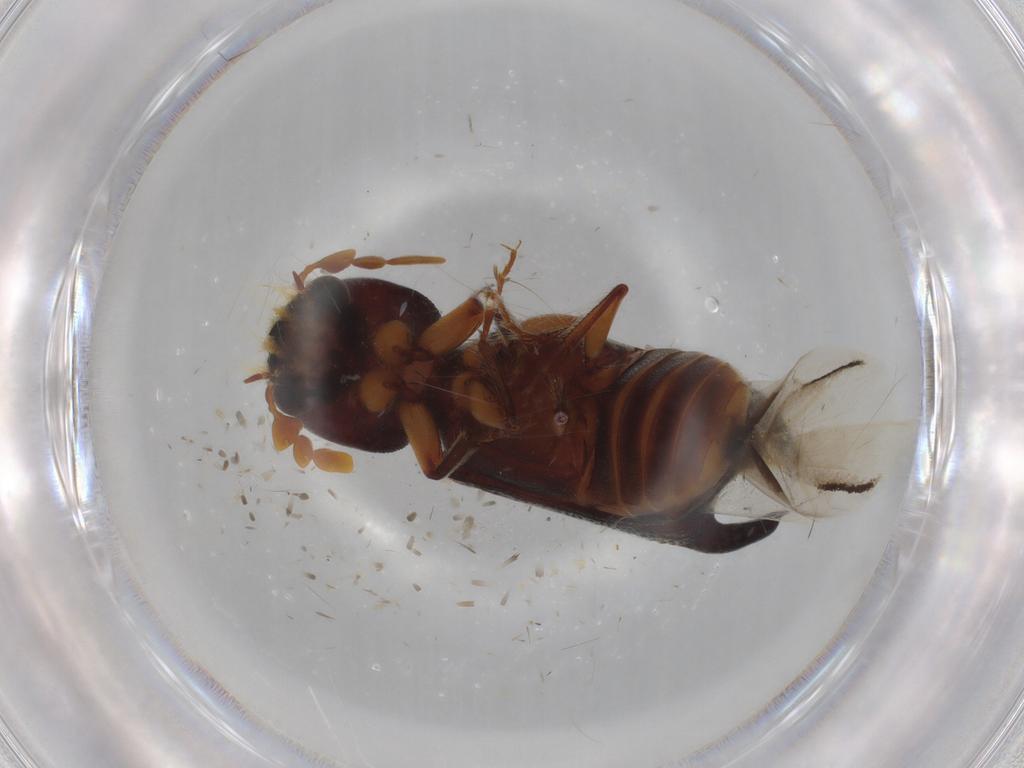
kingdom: Animalia
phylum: Arthropoda
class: Insecta
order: Coleoptera
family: Bostrichidae
